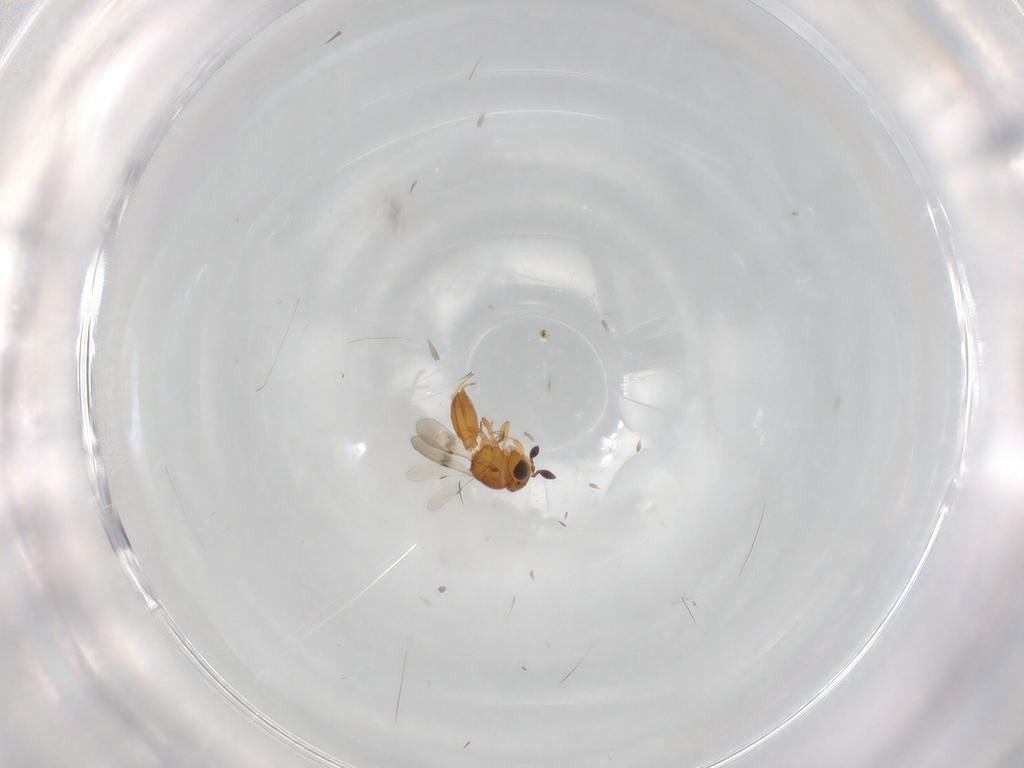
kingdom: Animalia
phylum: Arthropoda
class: Insecta
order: Hymenoptera
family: Scelionidae
